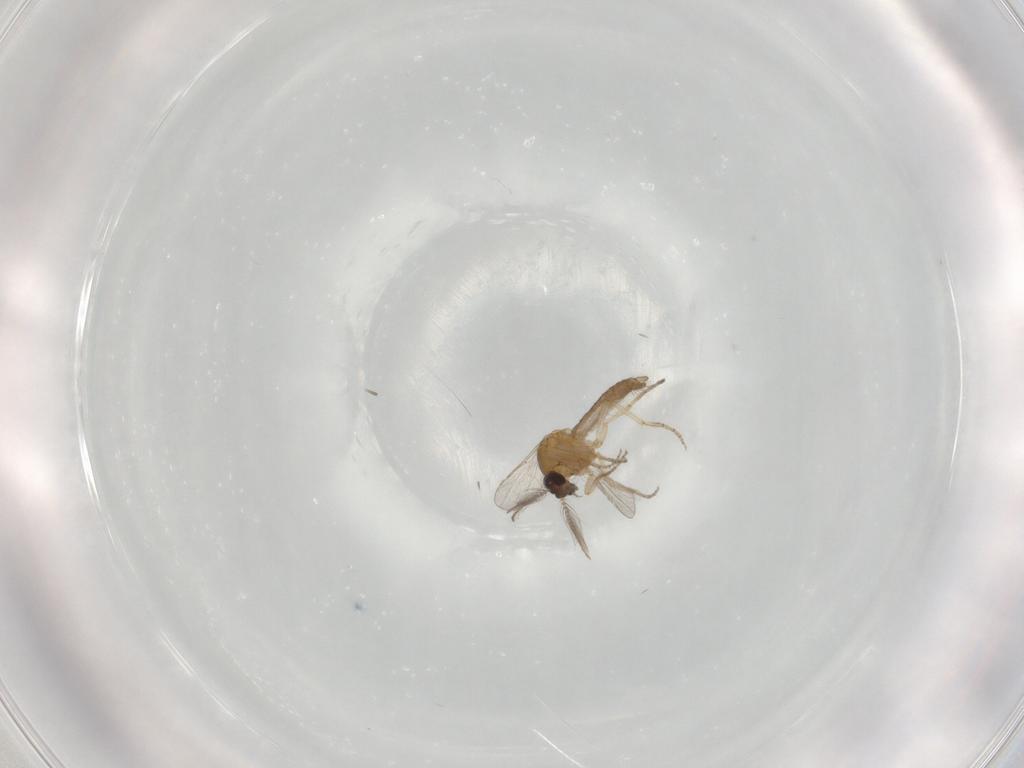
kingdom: Animalia
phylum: Arthropoda
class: Insecta
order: Diptera
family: Ceratopogonidae
